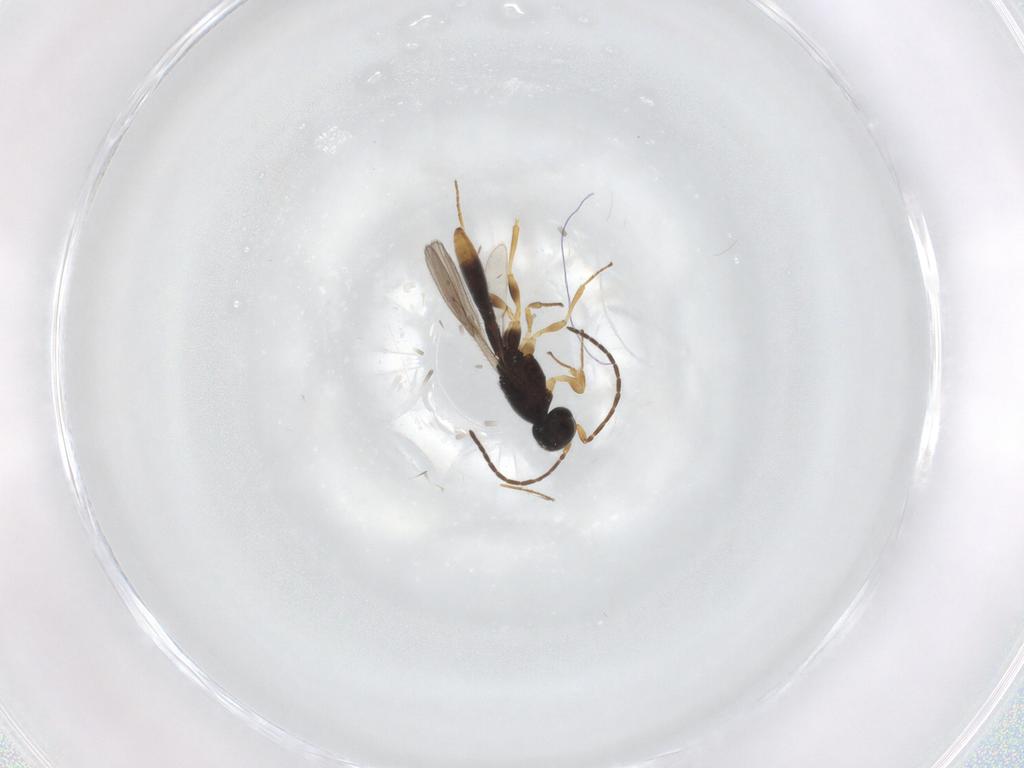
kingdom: Animalia
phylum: Arthropoda
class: Insecta
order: Hymenoptera
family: Scelionidae
